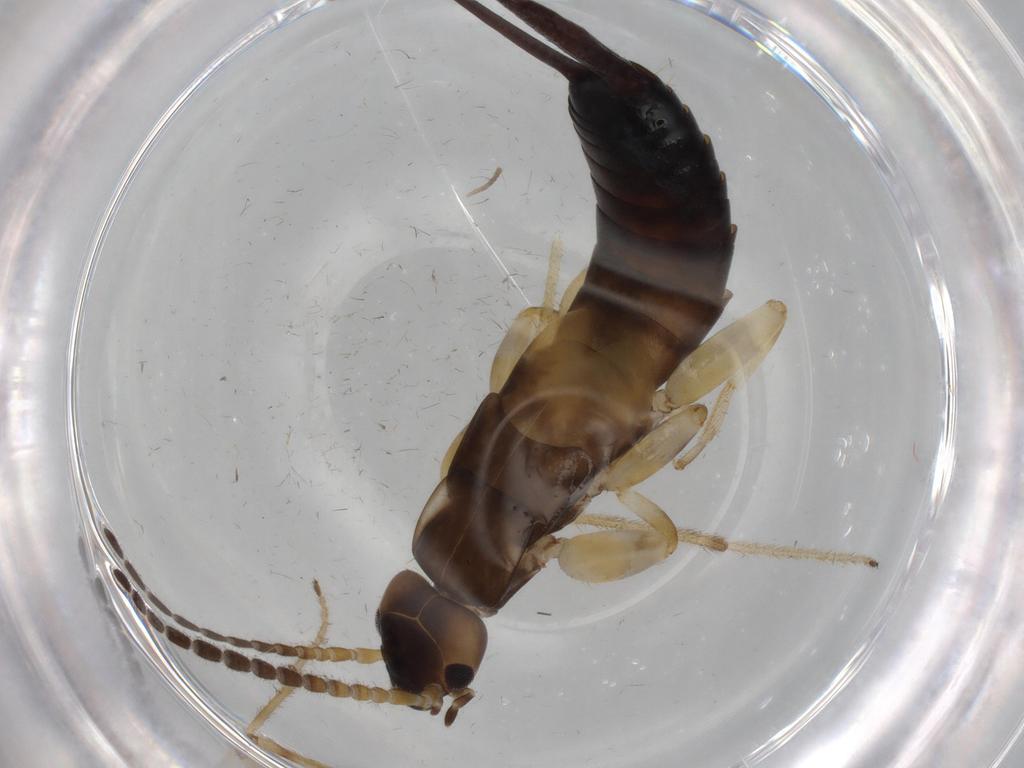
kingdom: Animalia
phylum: Arthropoda
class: Insecta
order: Dermaptera
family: Labiduridae
